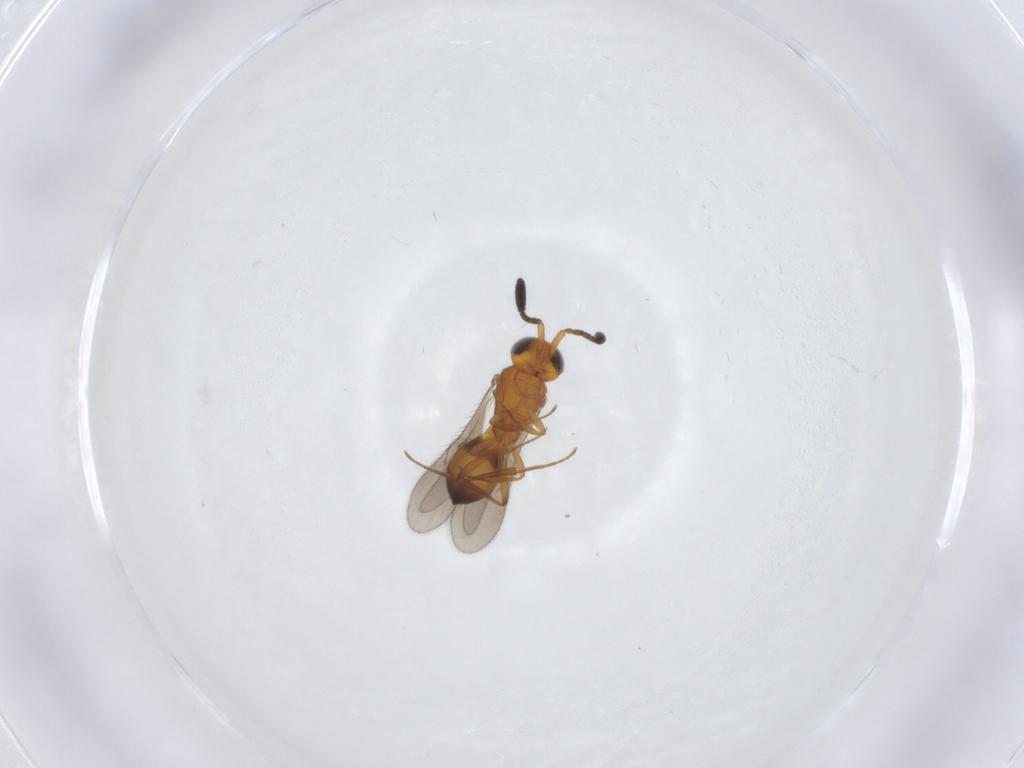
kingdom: Animalia
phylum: Arthropoda
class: Insecta
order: Hymenoptera
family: Scelionidae
